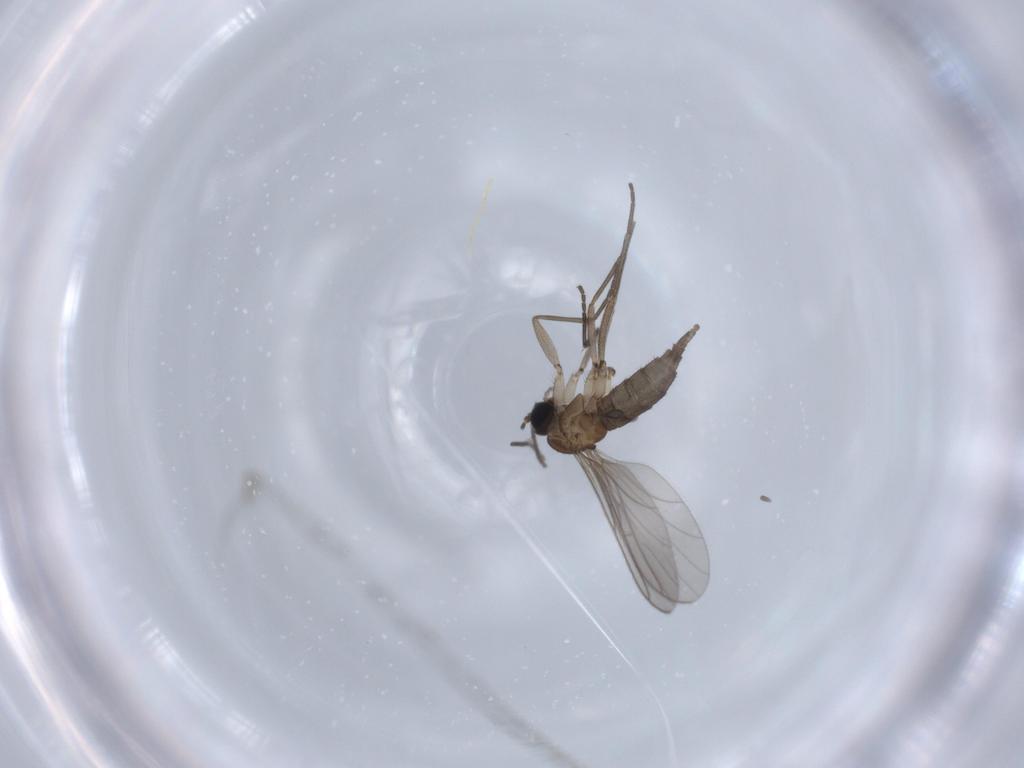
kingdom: Animalia
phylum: Arthropoda
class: Insecta
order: Diptera
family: Sciaridae
